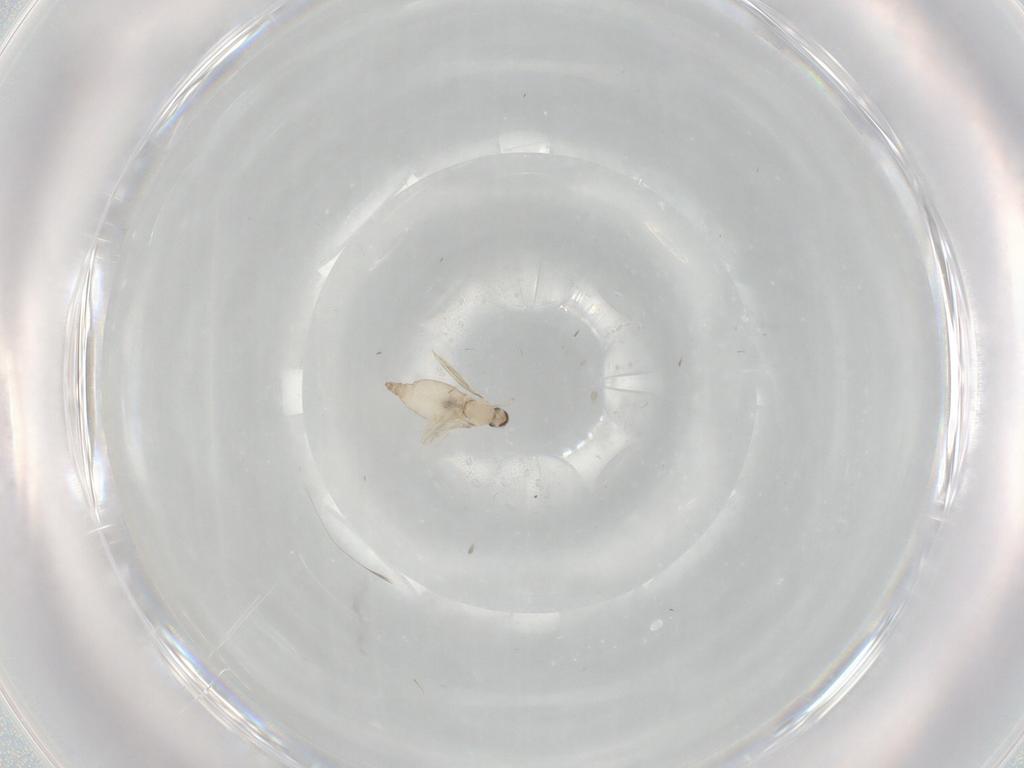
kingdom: Animalia
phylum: Arthropoda
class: Insecta
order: Diptera
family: Cecidomyiidae
